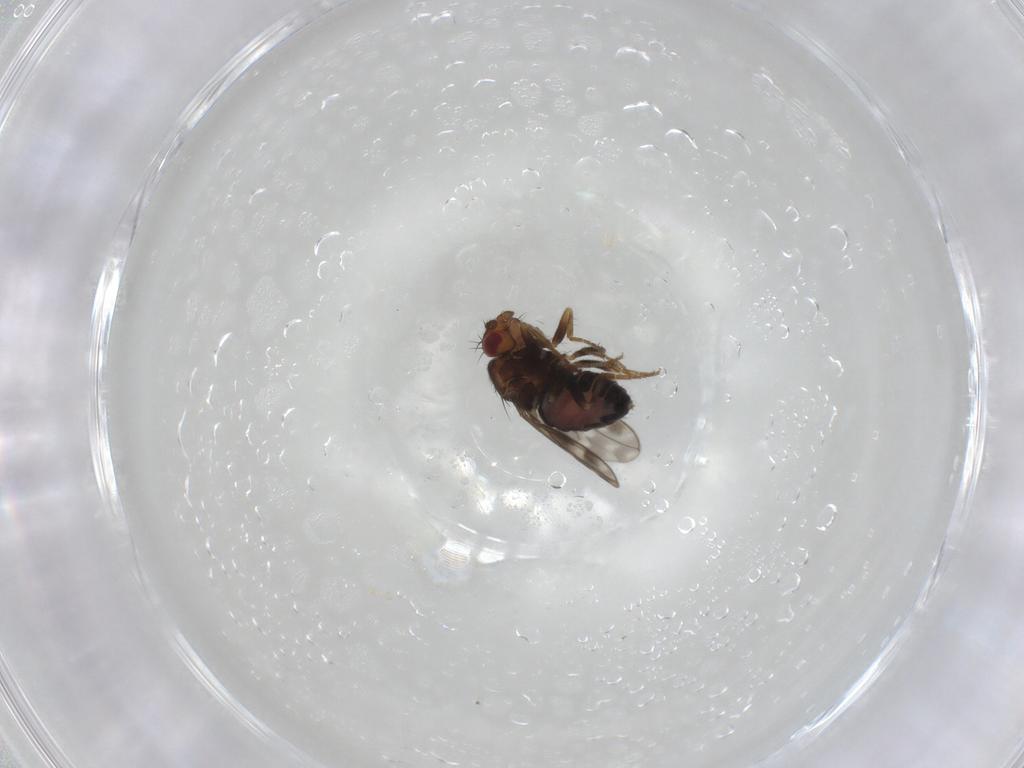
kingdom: Animalia
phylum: Arthropoda
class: Insecta
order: Diptera
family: Sphaeroceridae
